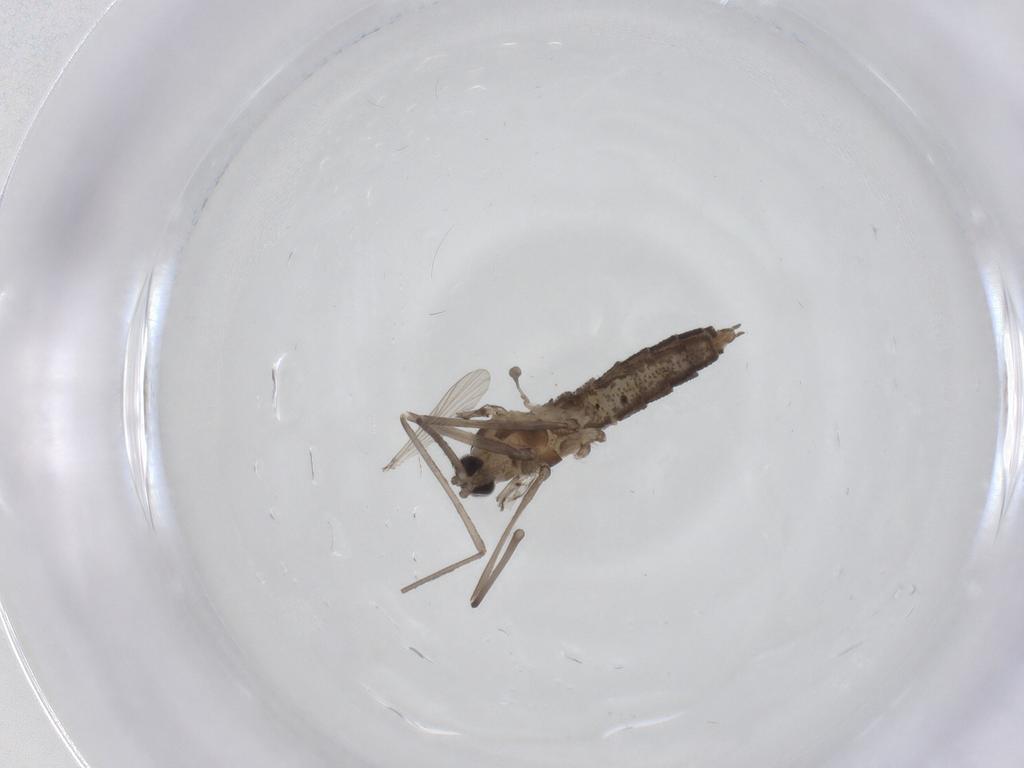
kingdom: Animalia
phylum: Arthropoda
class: Insecta
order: Diptera
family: Cecidomyiidae
